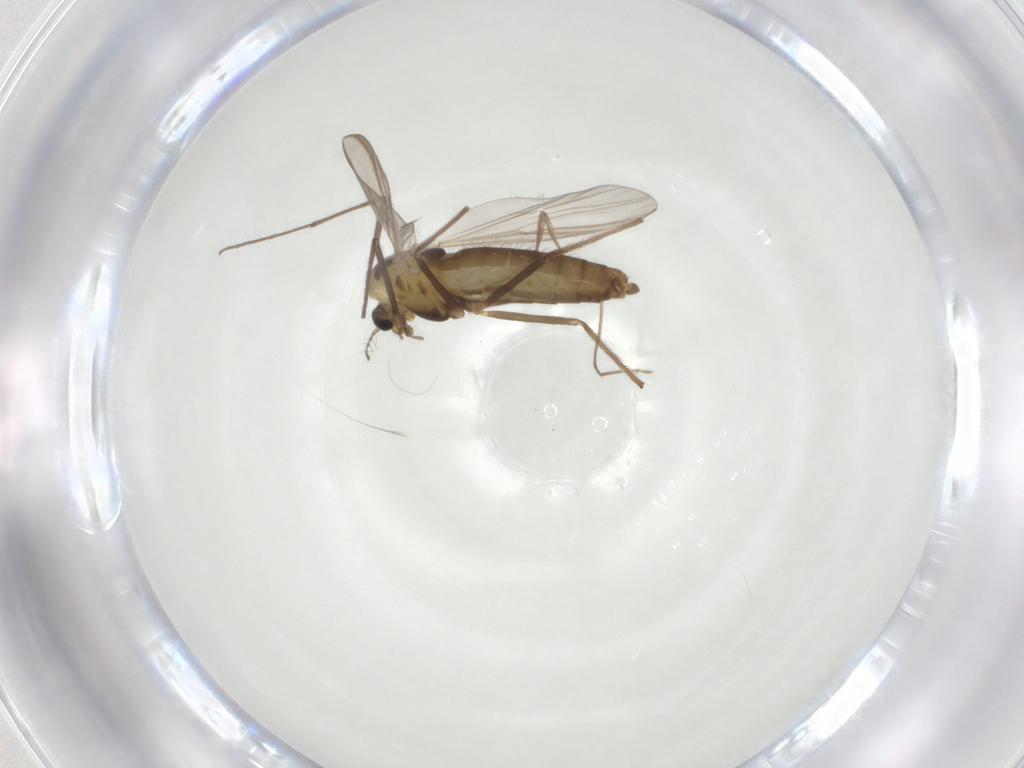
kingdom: Animalia
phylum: Arthropoda
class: Insecta
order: Diptera
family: Chironomidae
